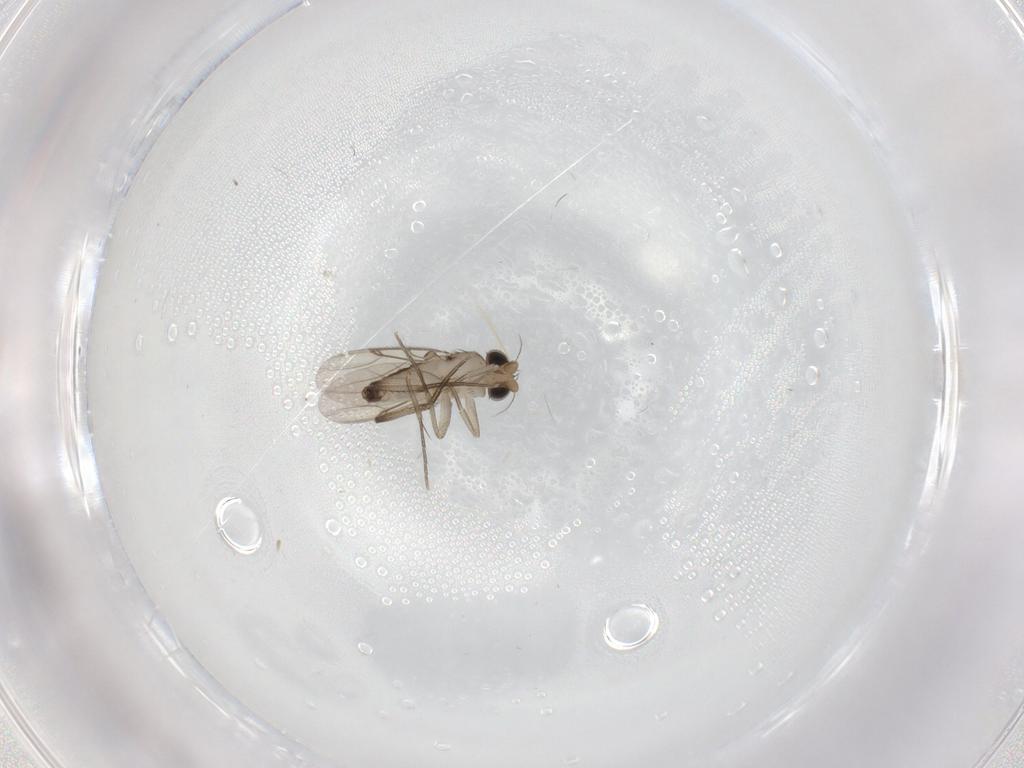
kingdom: Animalia
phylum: Arthropoda
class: Insecta
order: Diptera
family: Phoridae
